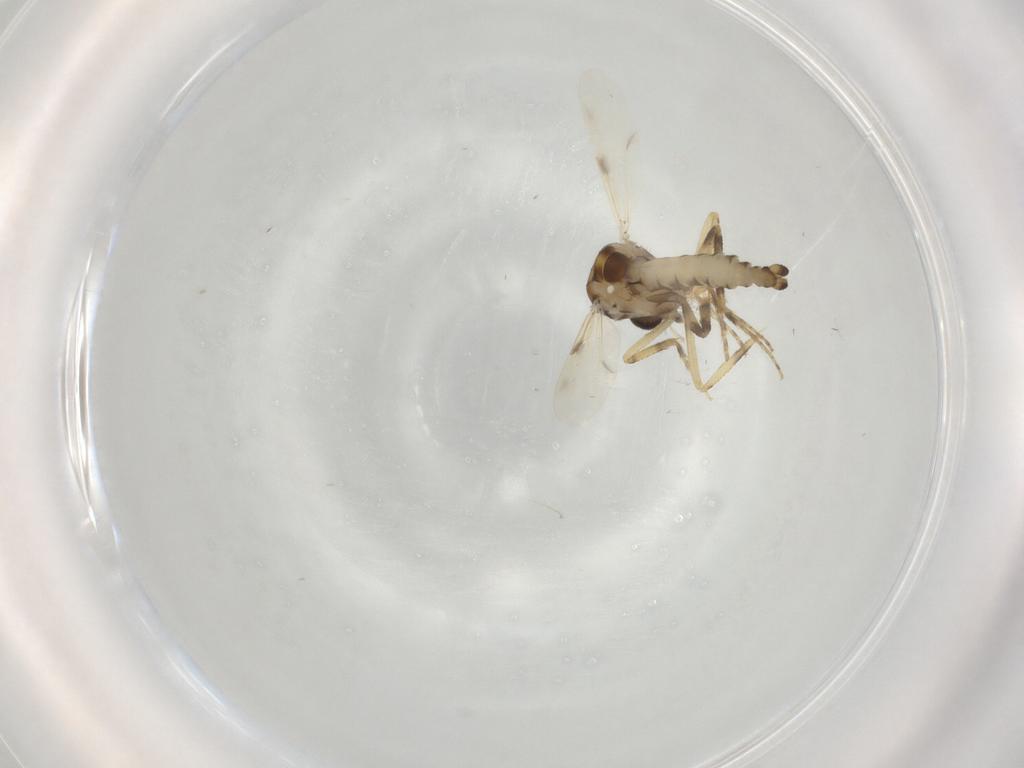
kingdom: Animalia
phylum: Arthropoda
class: Insecta
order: Diptera
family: Ceratopogonidae
